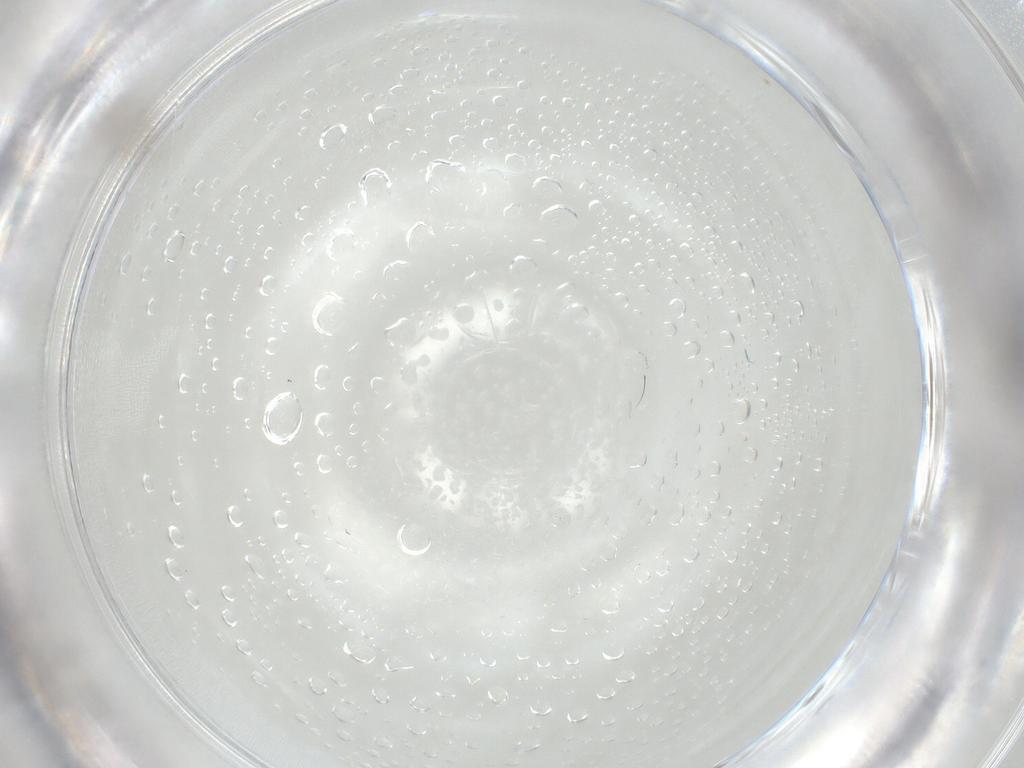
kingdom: Animalia
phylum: Arthropoda
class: Insecta
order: Diptera
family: Cecidomyiidae
